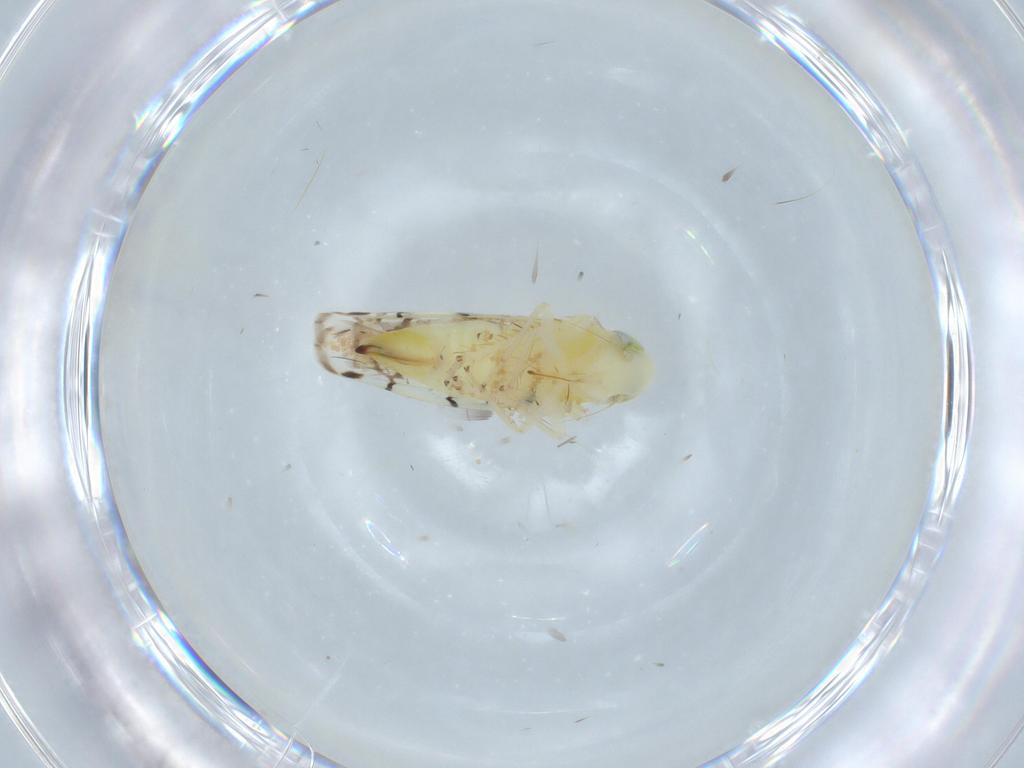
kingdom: Animalia
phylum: Arthropoda
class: Insecta
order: Hemiptera
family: Cicadellidae
